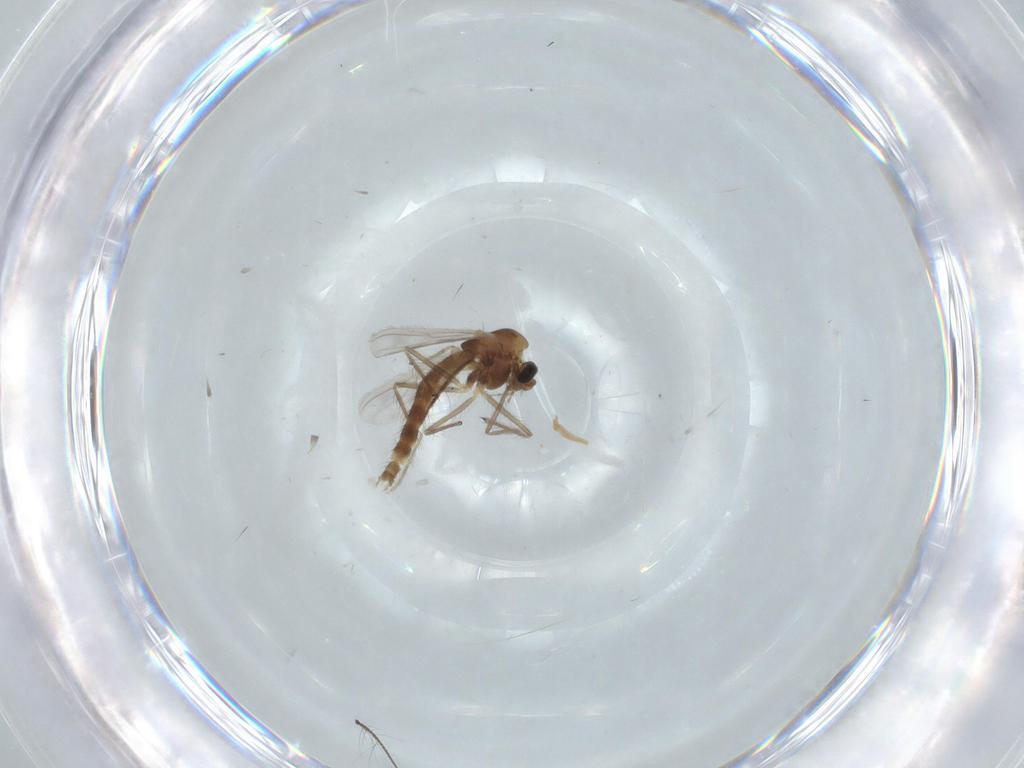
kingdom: Animalia
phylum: Arthropoda
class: Insecta
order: Diptera
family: Chironomidae
